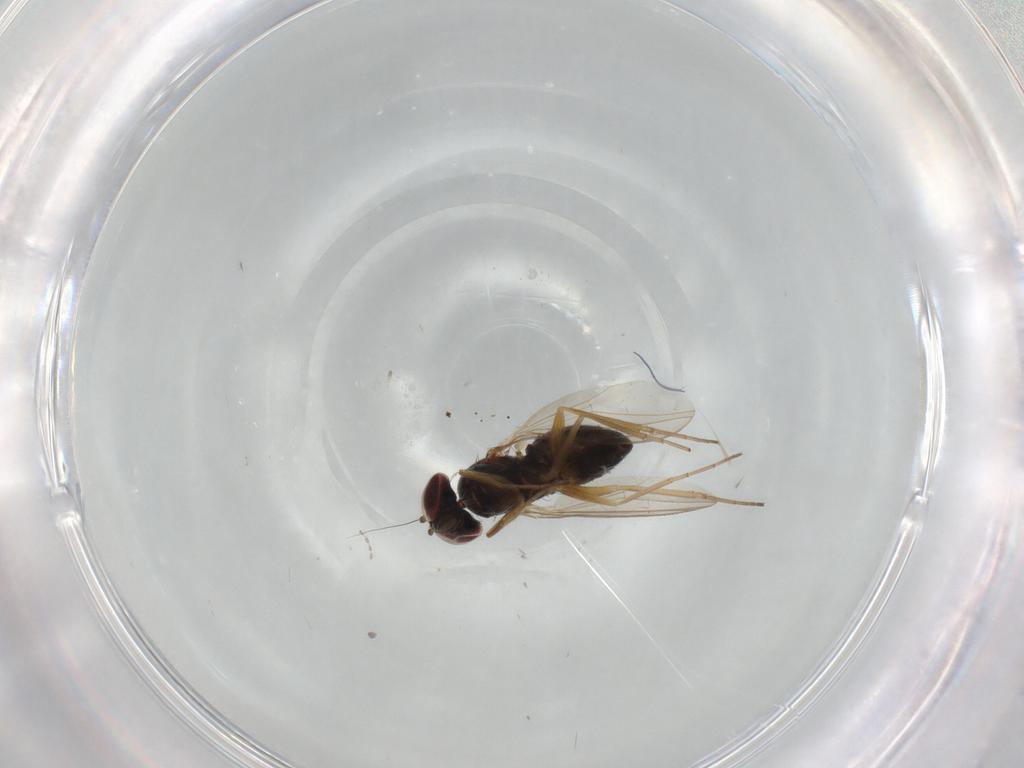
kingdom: Animalia
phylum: Arthropoda
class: Insecta
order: Diptera
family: Dolichopodidae
